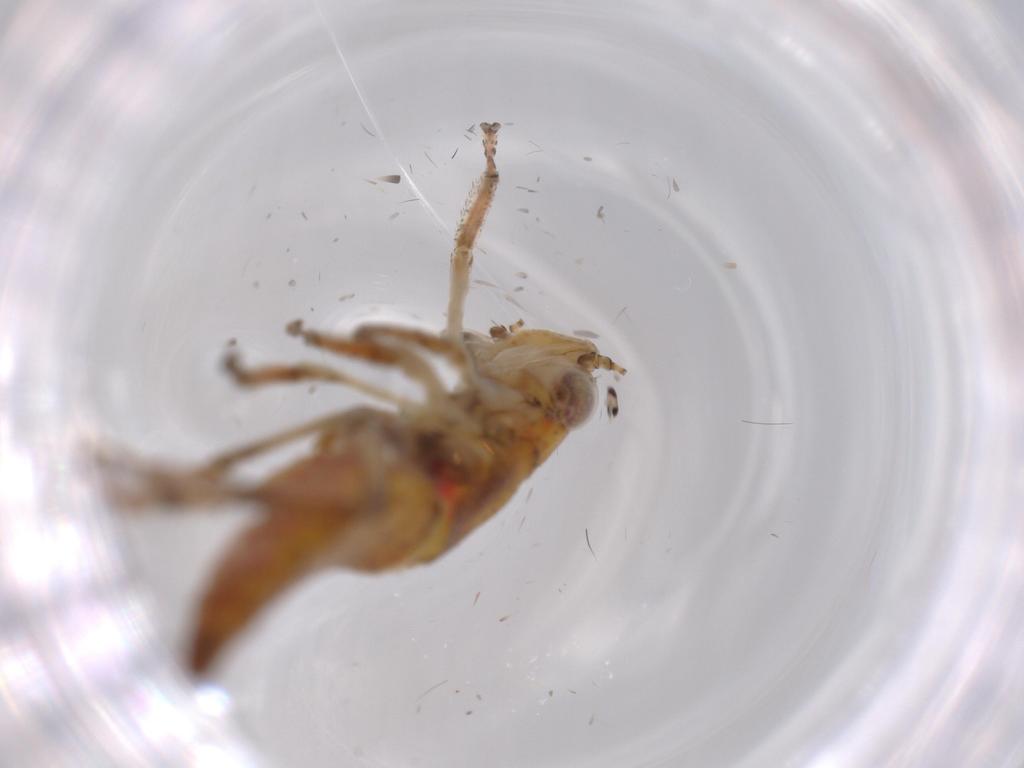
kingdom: Animalia
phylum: Arthropoda
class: Insecta
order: Hemiptera
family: Cicadellidae
